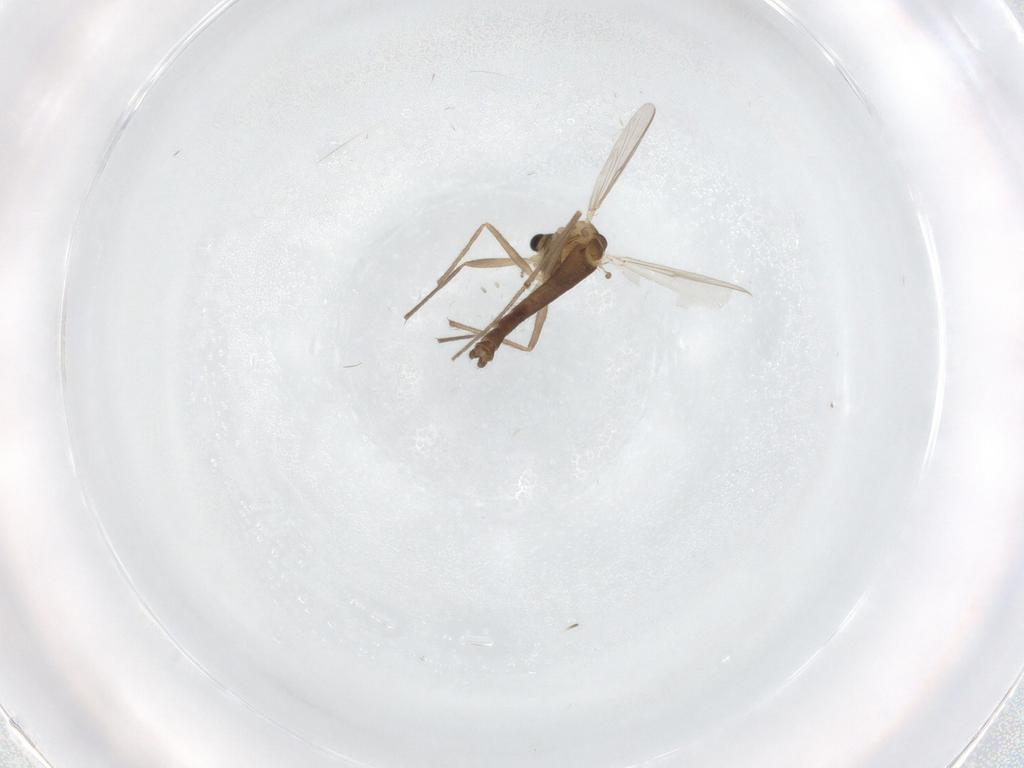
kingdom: Animalia
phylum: Arthropoda
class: Insecta
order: Diptera
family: Chironomidae
